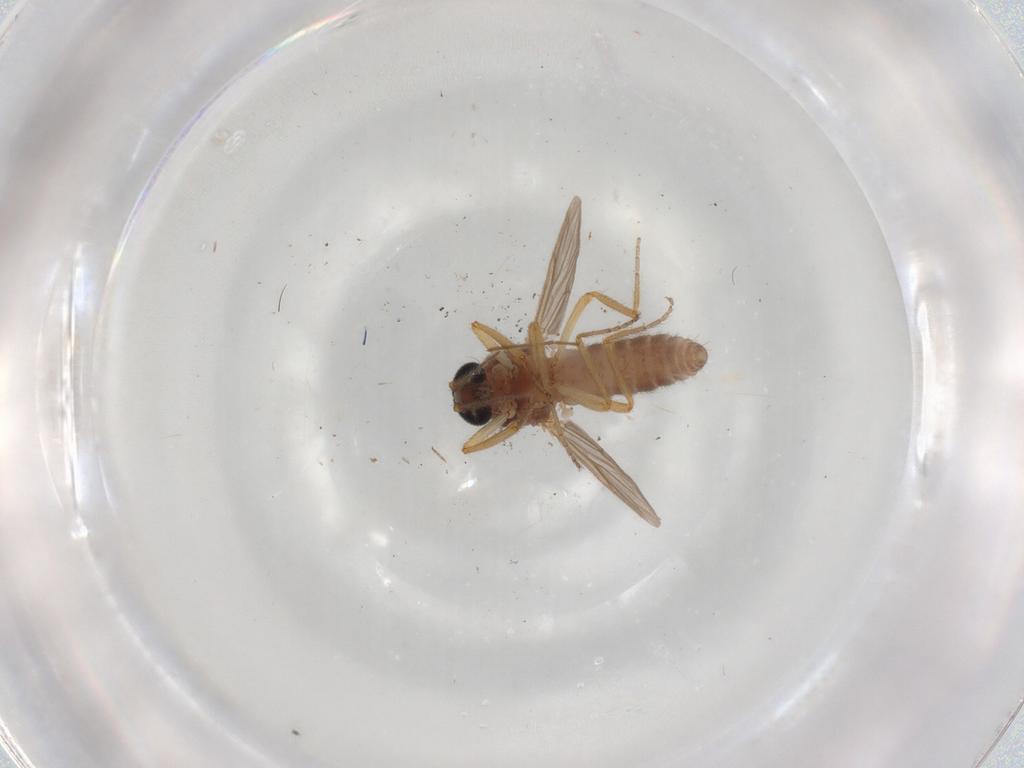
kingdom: Animalia
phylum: Arthropoda
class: Insecta
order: Diptera
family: Ceratopogonidae
